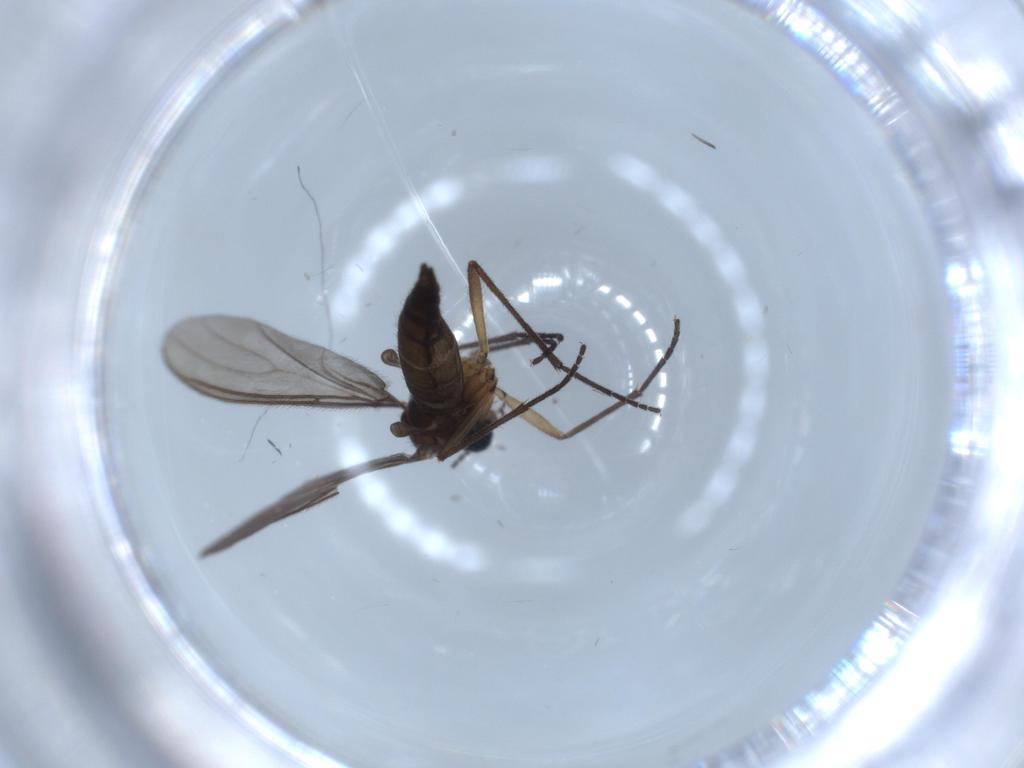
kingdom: Animalia
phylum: Arthropoda
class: Insecta
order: Diptera
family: Sciaridae
